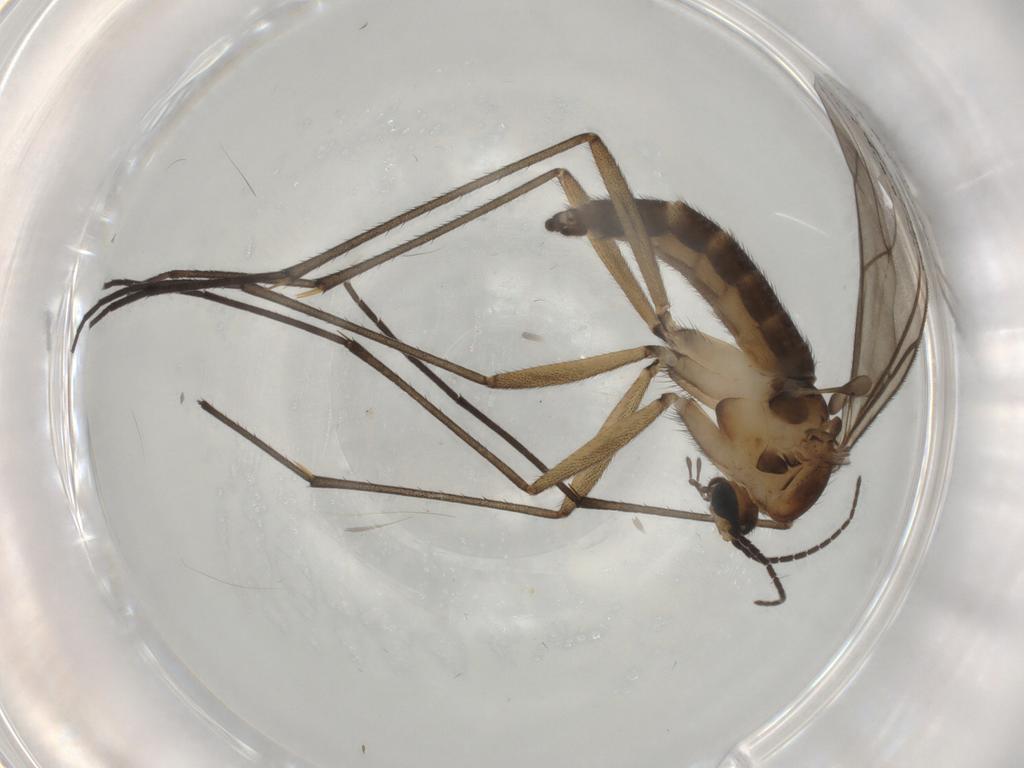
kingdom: Animalia
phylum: Arthropoda
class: Insecta
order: Diptera
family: Sciaridae
